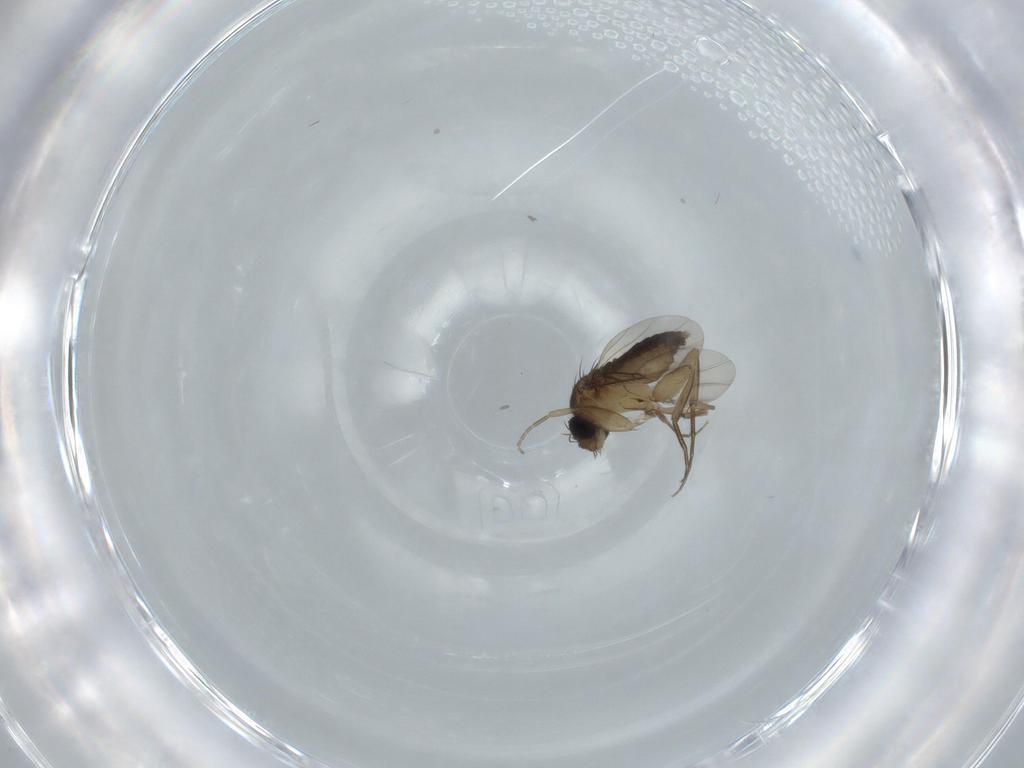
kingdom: Animalia
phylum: Arthropoda
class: Insecta
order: Diptera
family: Phoridae
